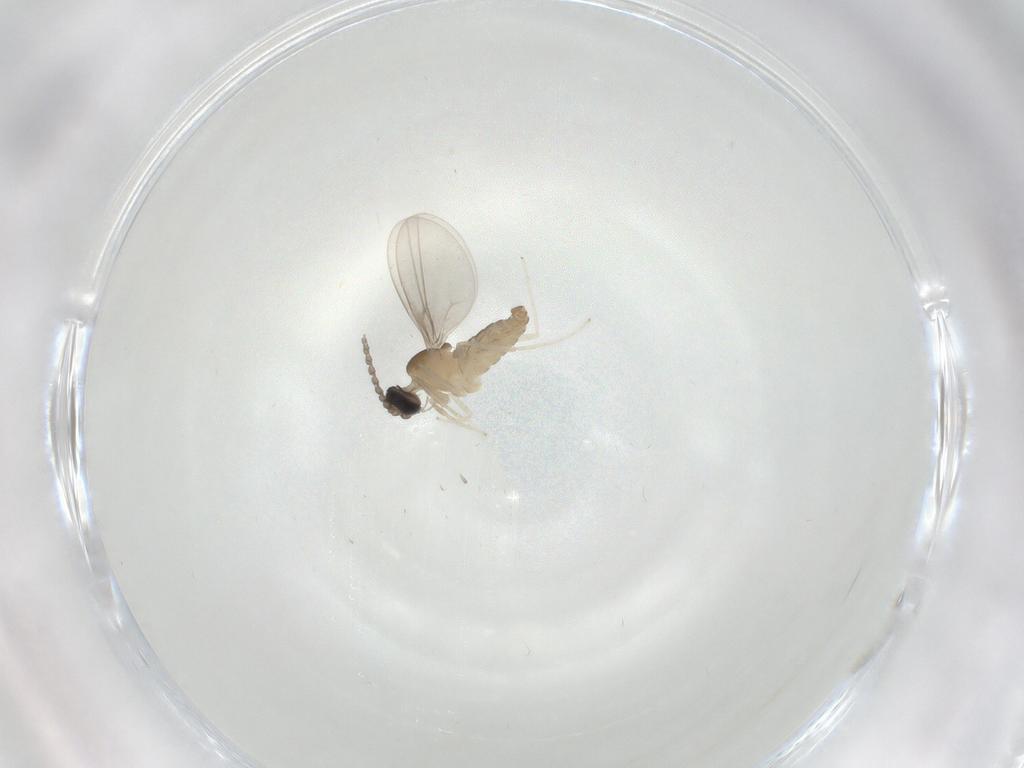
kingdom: Animalia
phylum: Arthropoda
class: Insecta
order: Diptera
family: Cecidomyiidae
